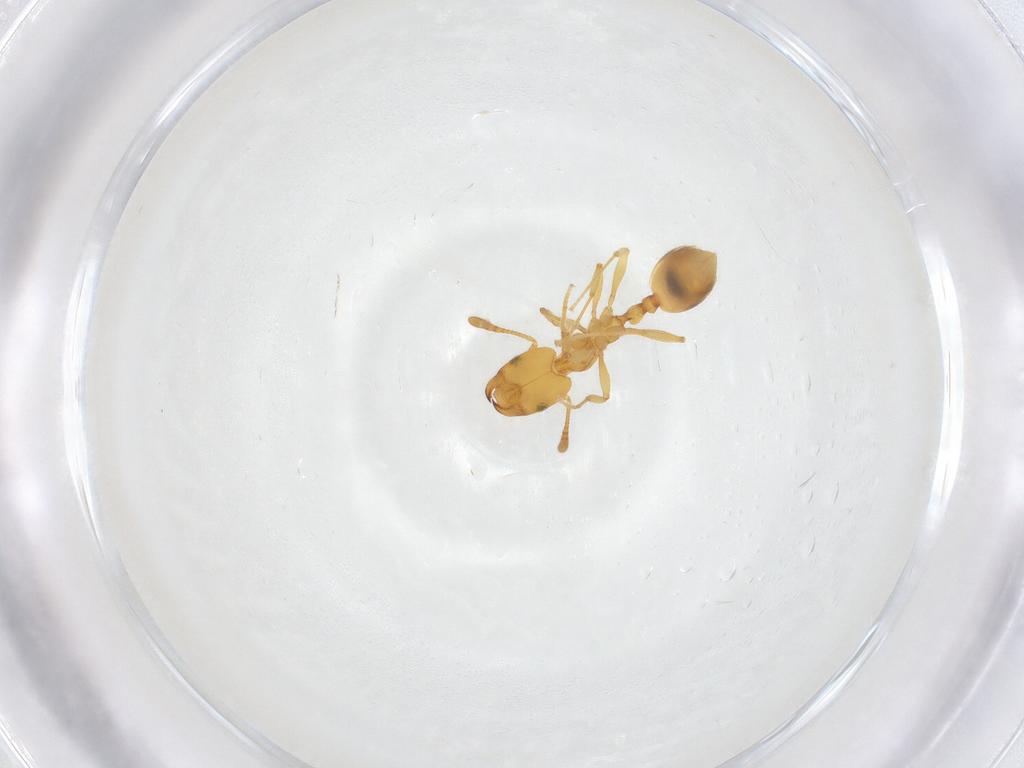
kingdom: Animalia
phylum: Arthropoda
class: Insecta
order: Hymenoptera
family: Formicidae
